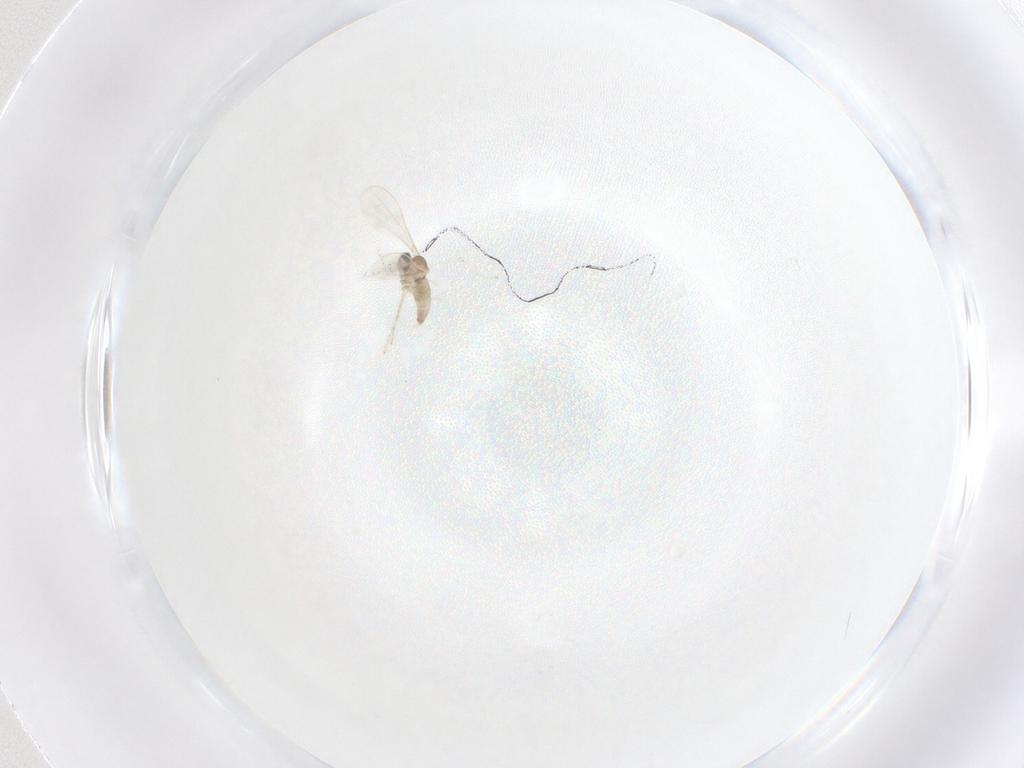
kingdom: Animalia
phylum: Arthropoda
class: Insecta
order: Diptera
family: Cecidomyiidae
